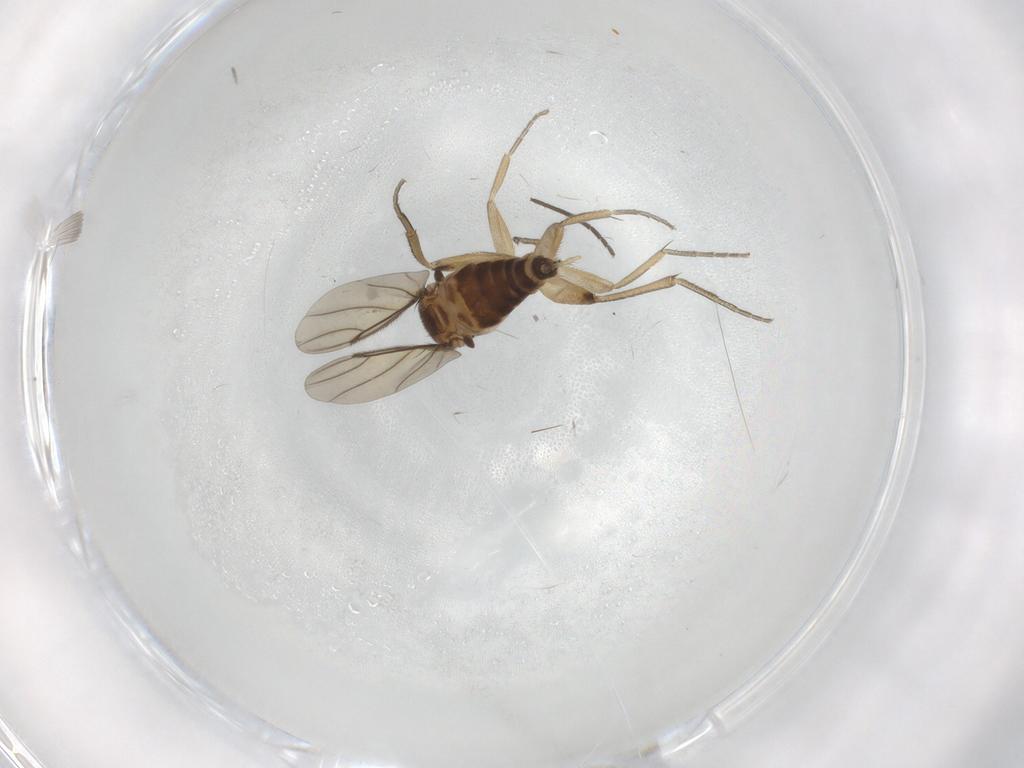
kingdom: Animalia
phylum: Arthropoda
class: Insecta
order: Diptera
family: Phoridae
